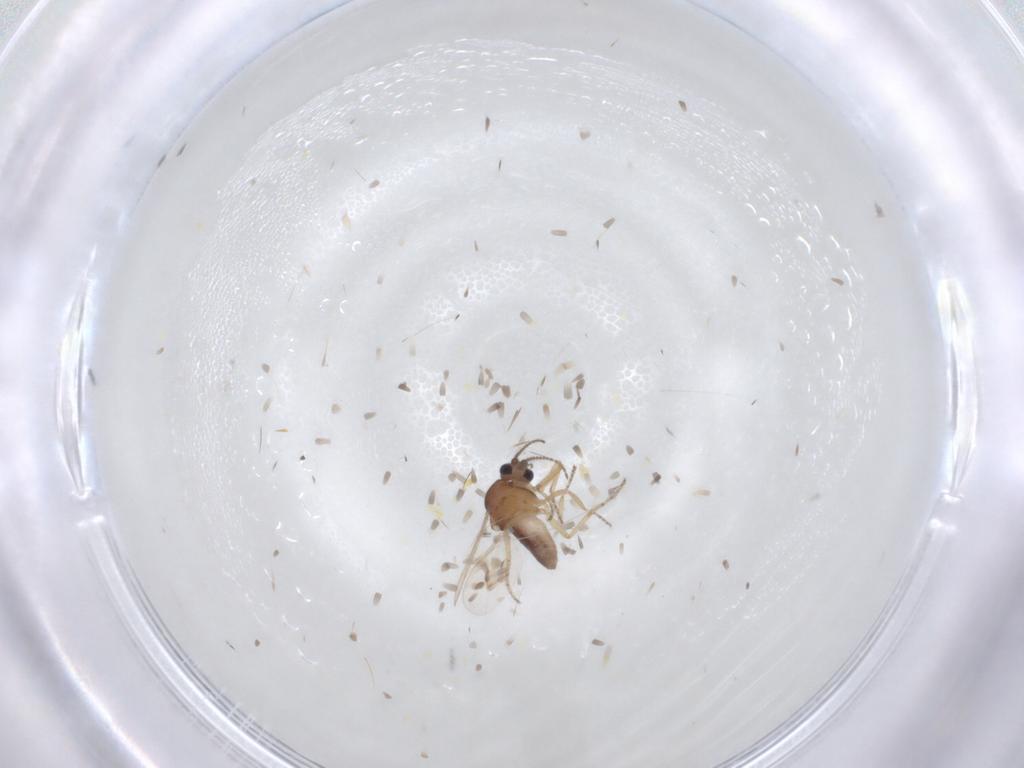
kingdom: Animalia
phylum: Arthropoda
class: Insecta
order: Diptera
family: Ceratopogonidae
